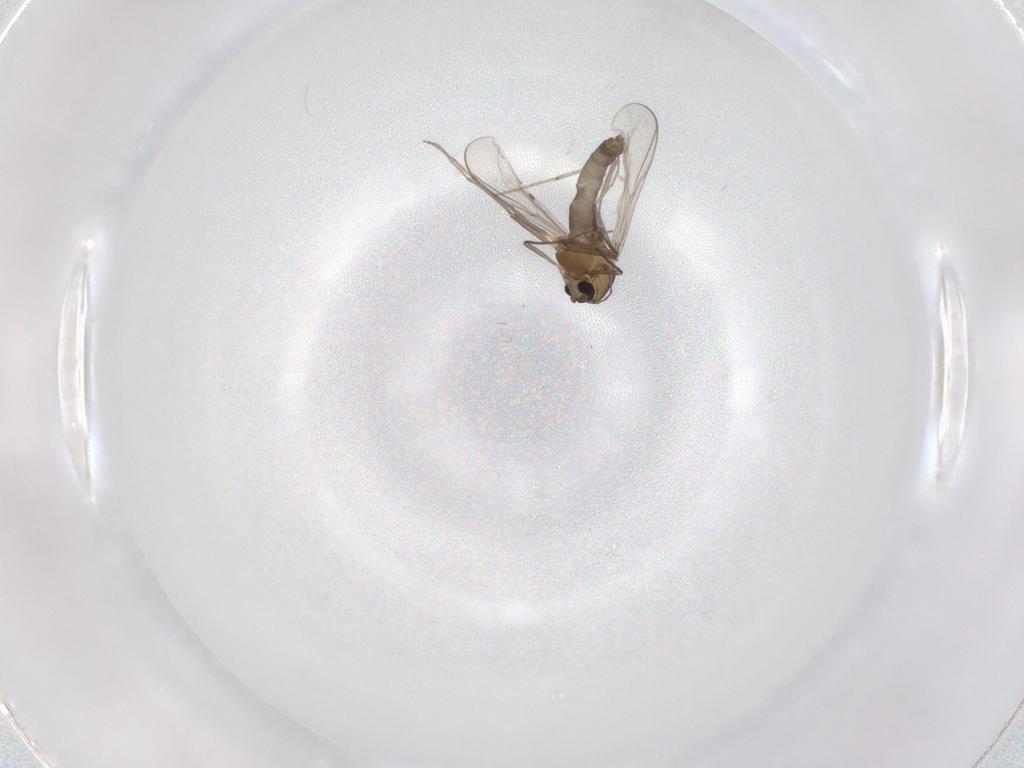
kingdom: Animalia
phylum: Arthropoda
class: Insecta
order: Diptera
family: Chironomidae
